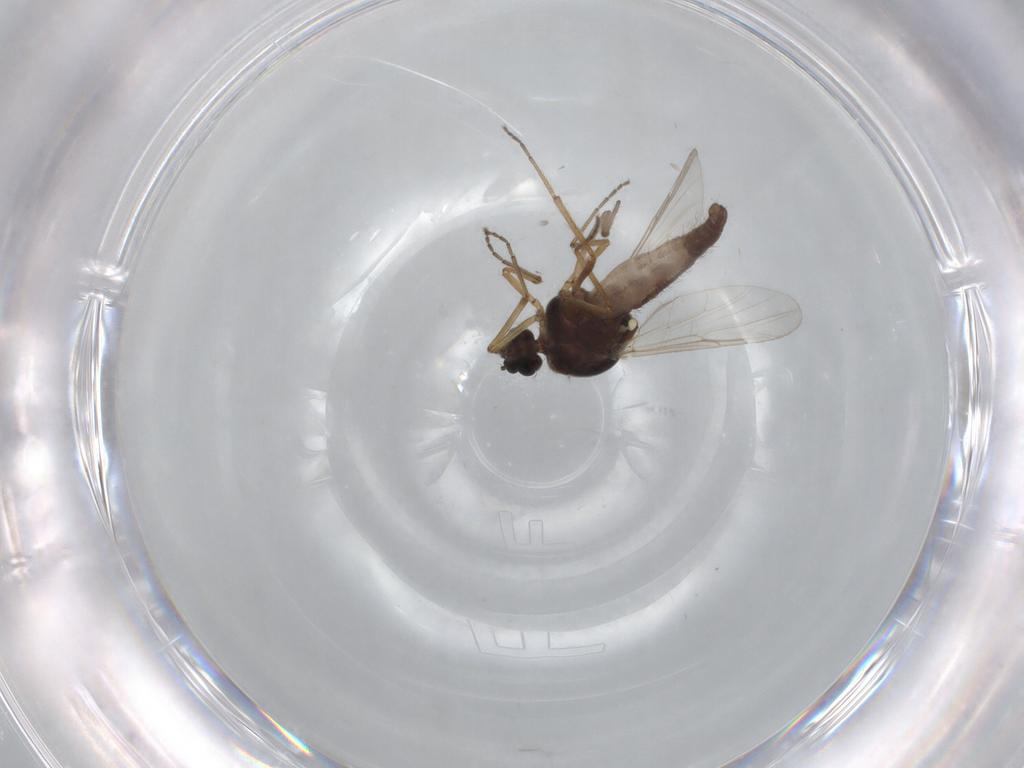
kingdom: Animalia
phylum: Arthropoda
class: Insecta
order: Diptera
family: Ceratopogonidae
